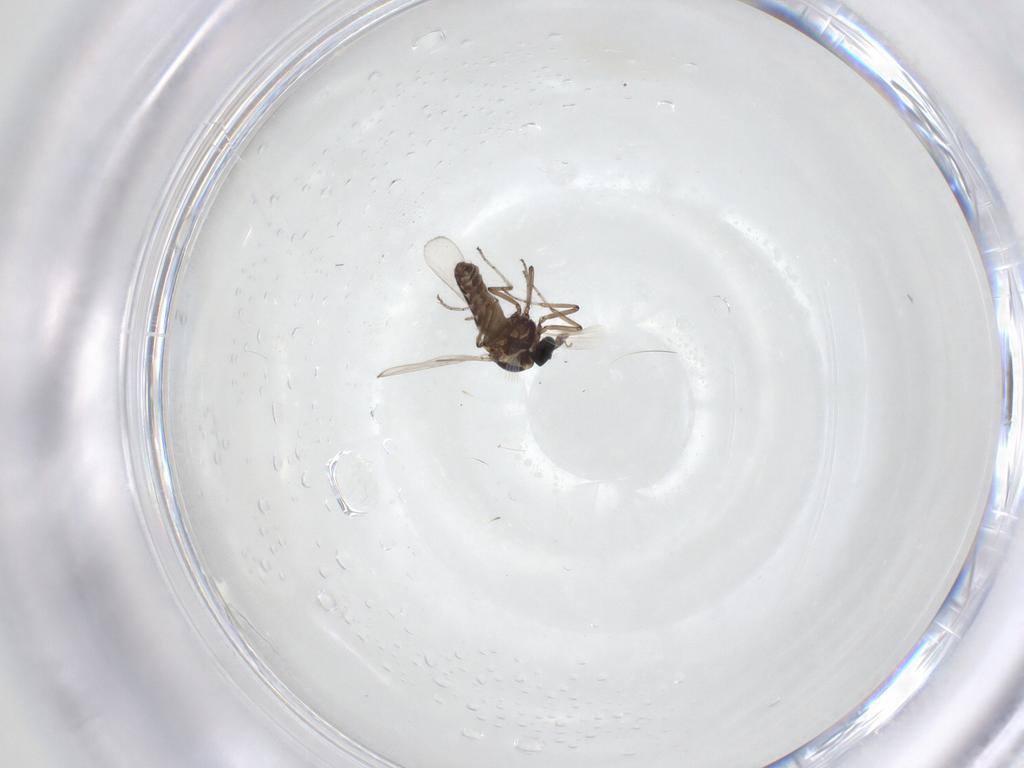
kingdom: Animalia
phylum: Arthropoda
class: Insecta
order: Diptera
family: Ceratopogonidae
